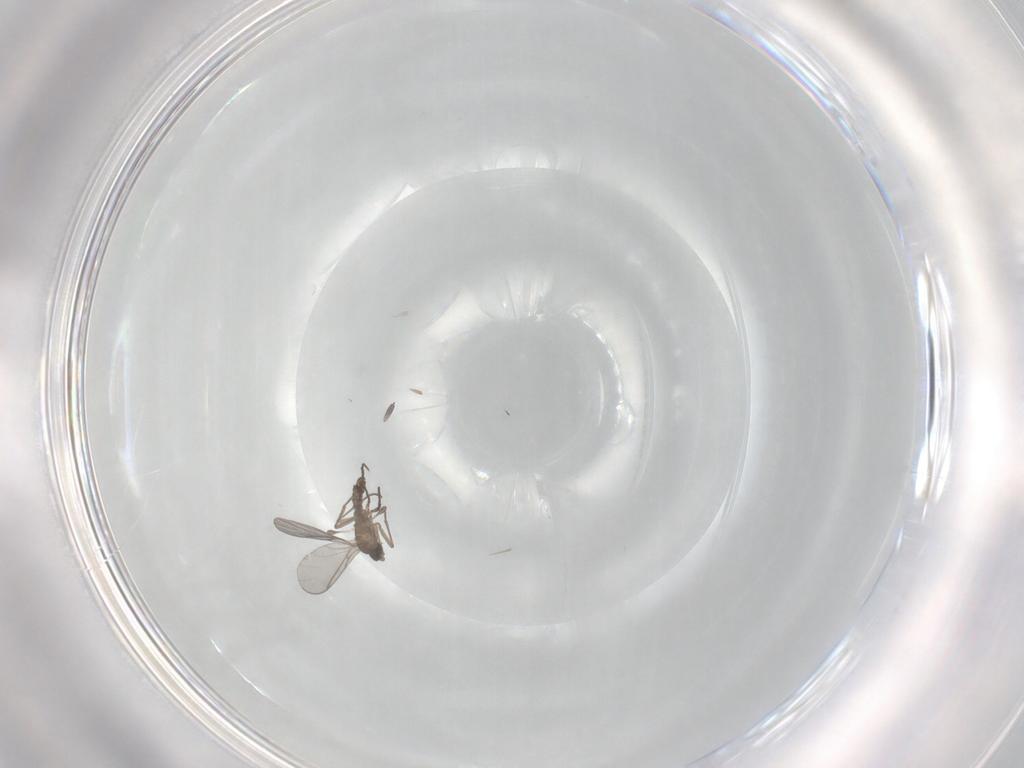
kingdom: Animalia
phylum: Arthropoda
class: Insecta
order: Diptera
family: Sciaridae
